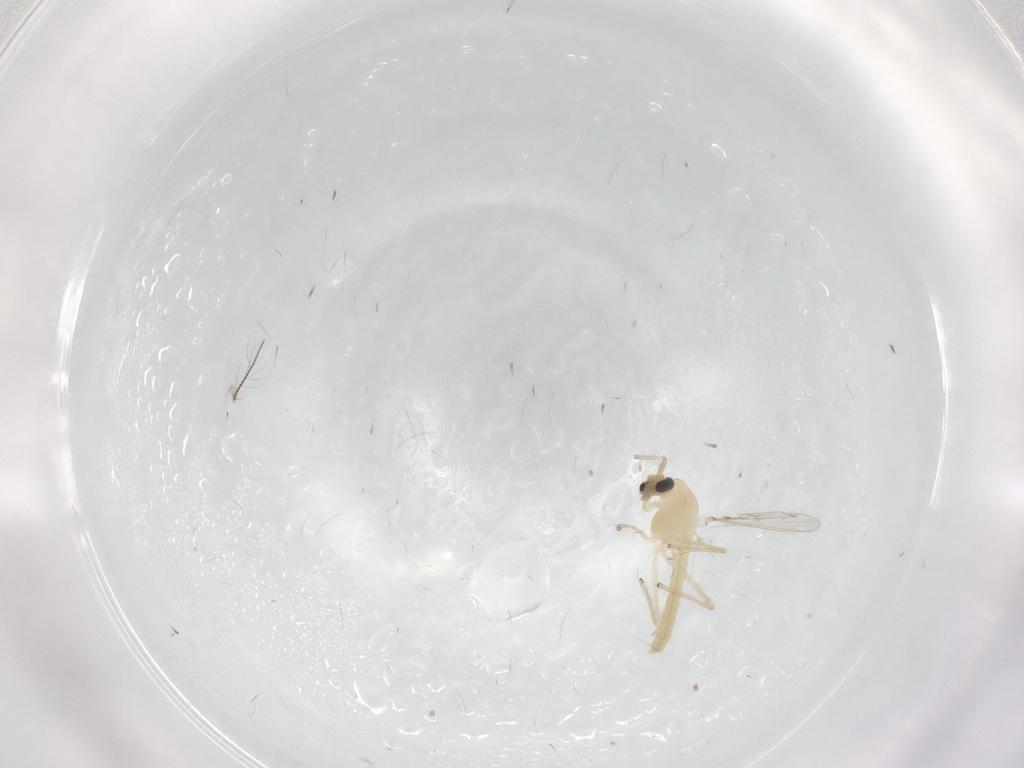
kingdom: Animalia
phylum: Arthropoda
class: Insecta
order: Diptera
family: Chironomidae
